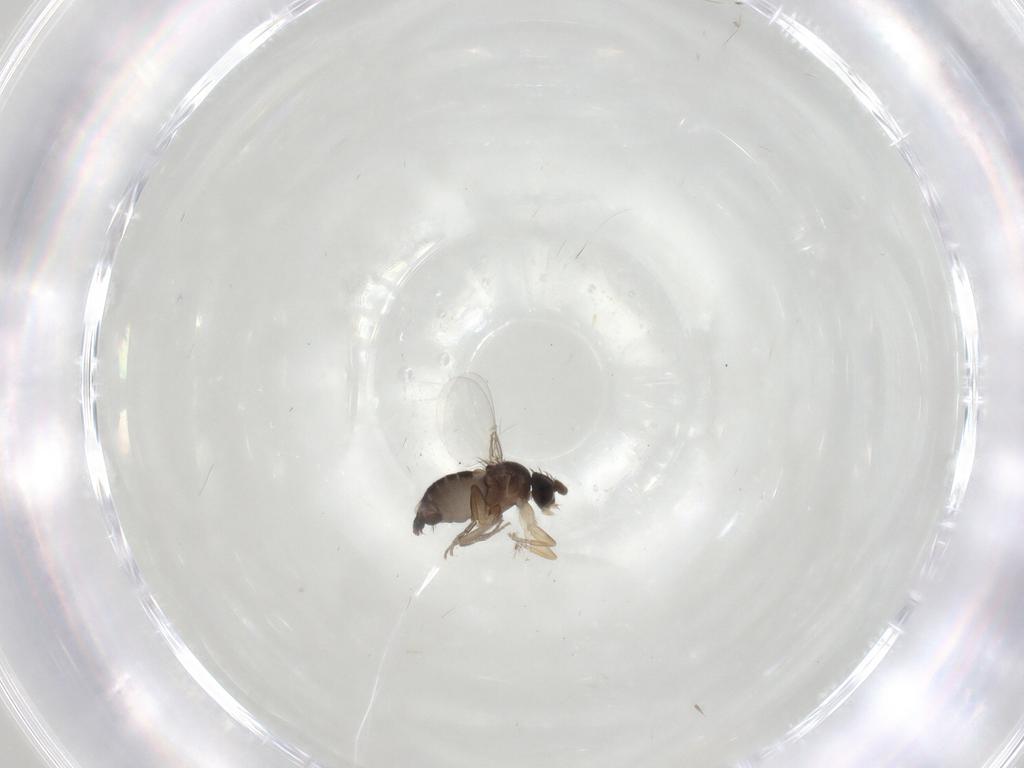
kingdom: Animalia
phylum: Arthropoda
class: Insecta
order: Diptera
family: Phoridae
